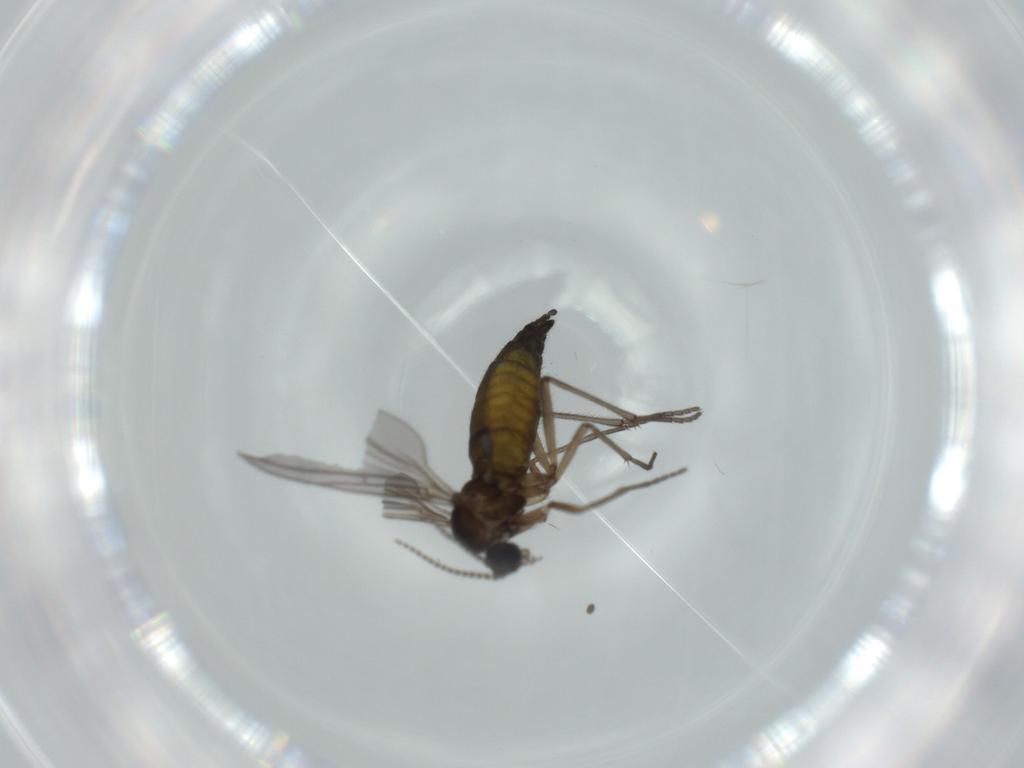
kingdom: Animalia
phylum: Arthropoda
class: Insecta
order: Diptera
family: Sciaridae
